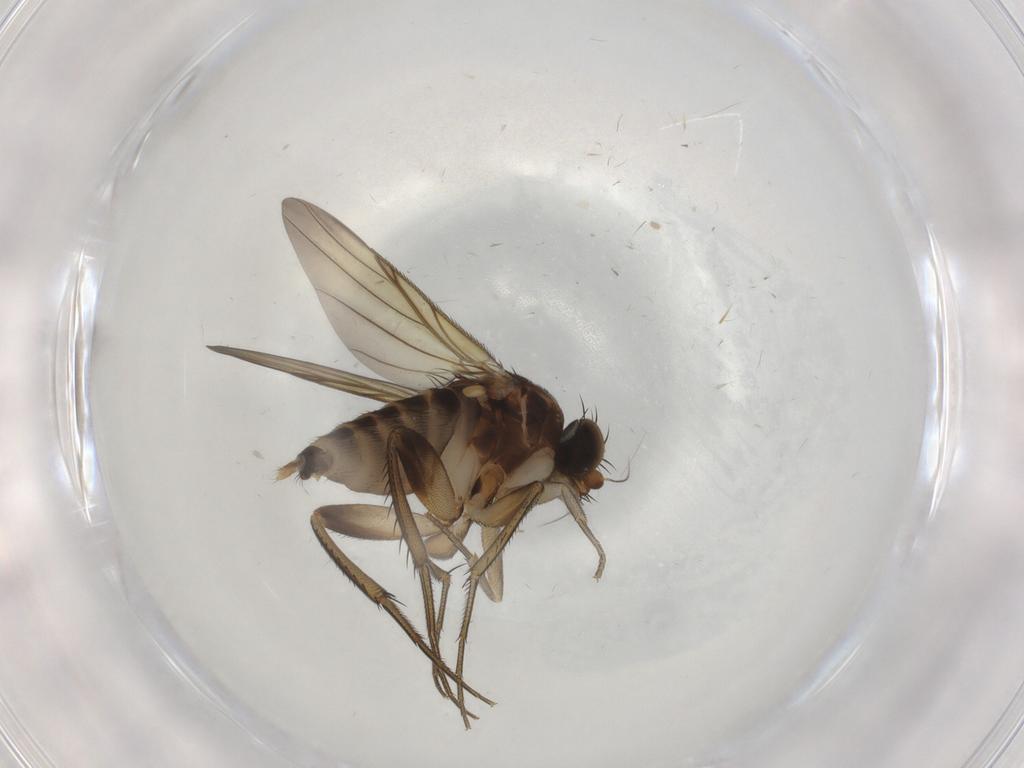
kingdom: Animalia
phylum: Arthropoda
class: Insecta
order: Diptera
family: Phoridae
